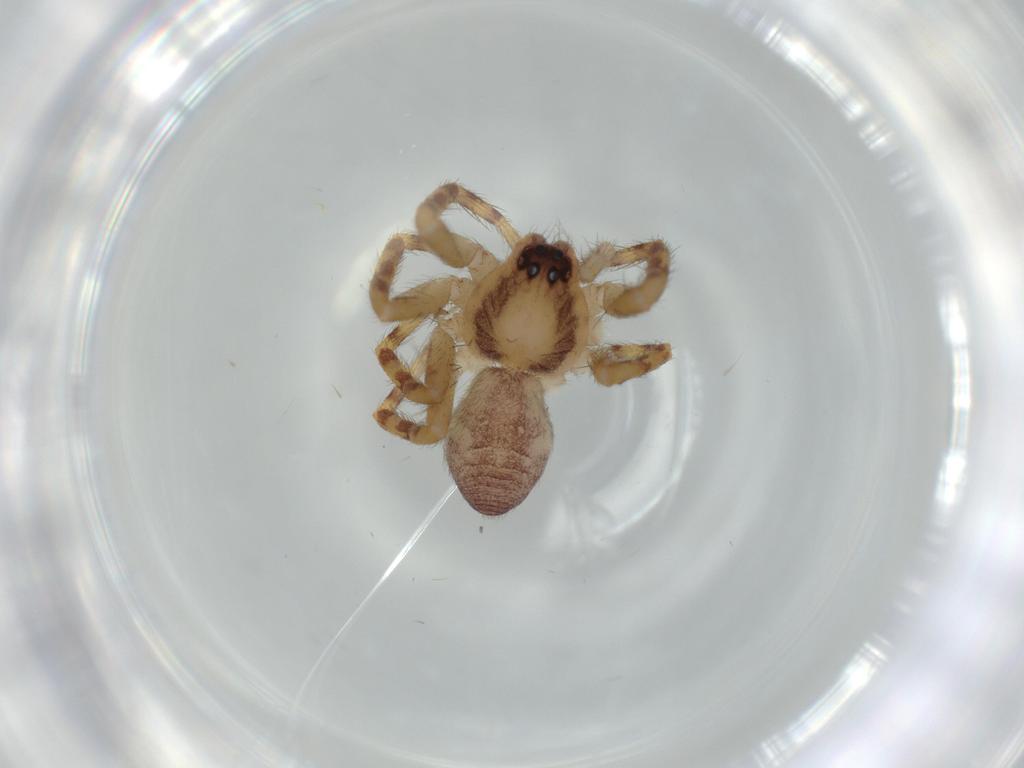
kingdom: Animalia
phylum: Arthropoda
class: Arachnida
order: Araneae
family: Corinnidae
